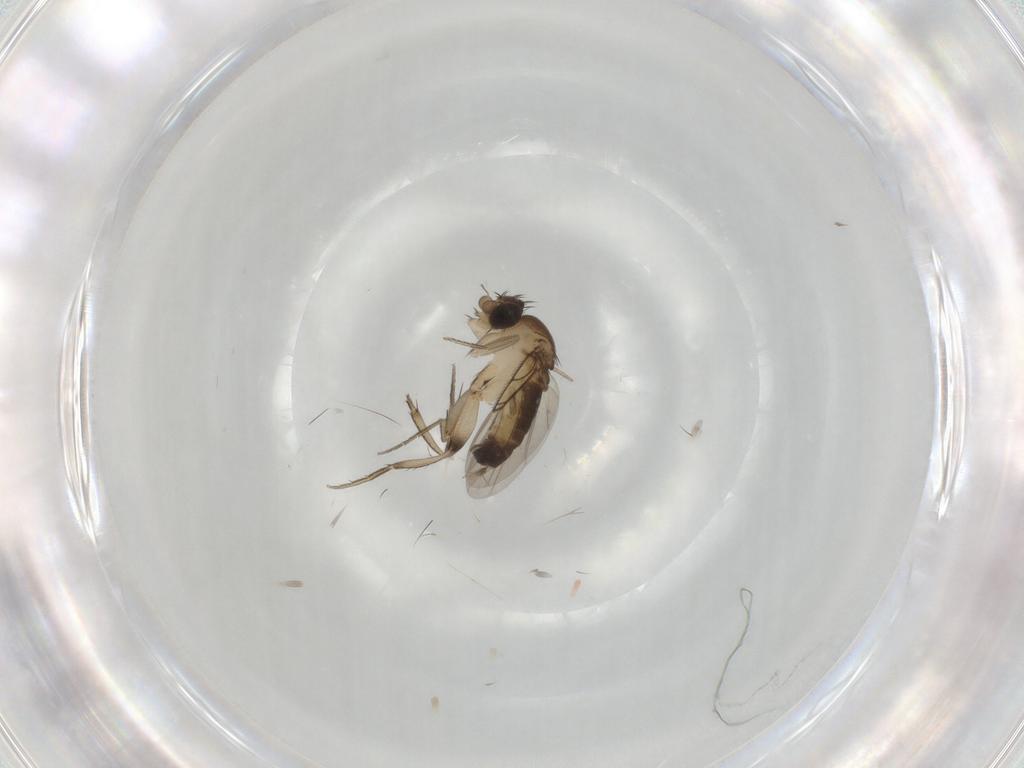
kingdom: Animalia
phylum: Arthropoda
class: Insecta
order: Diptera
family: Phoridae
